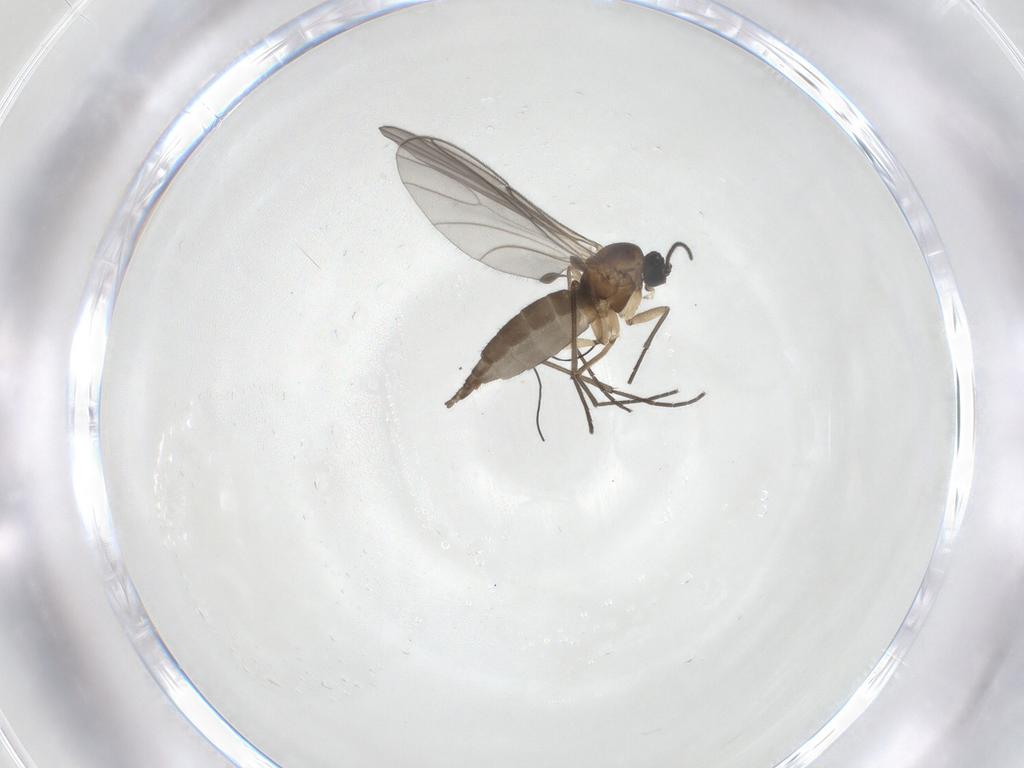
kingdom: Animalia
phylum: Arthropoda
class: Insecta
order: Diptera
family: Sciaridae
